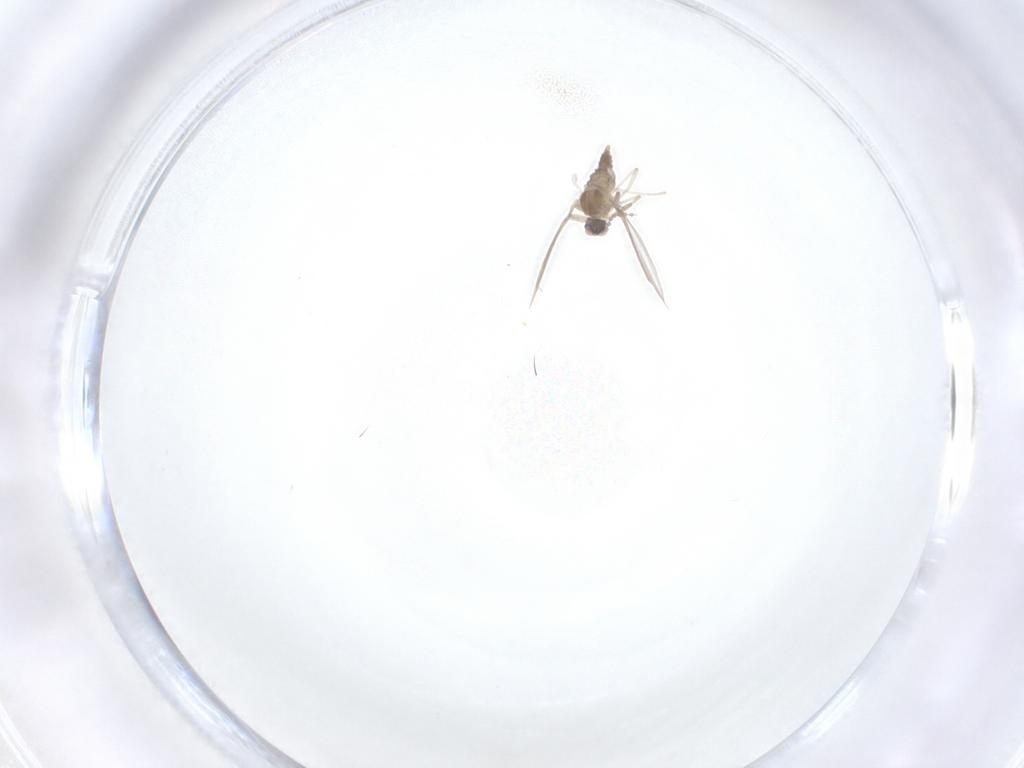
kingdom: Animalia
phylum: Arthropoda
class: Insecta
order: Diptera
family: Cecidomyiidae
